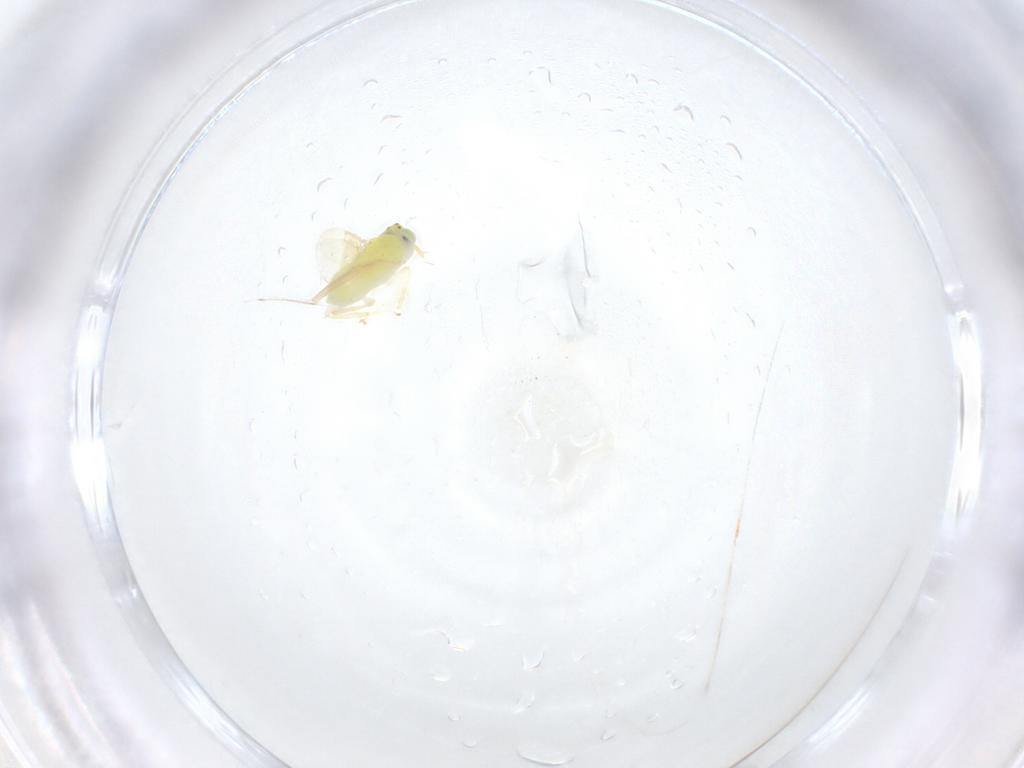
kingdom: Animalia
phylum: Arthropoda
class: Insecta
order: Hymenoptera
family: Aphelinidae
